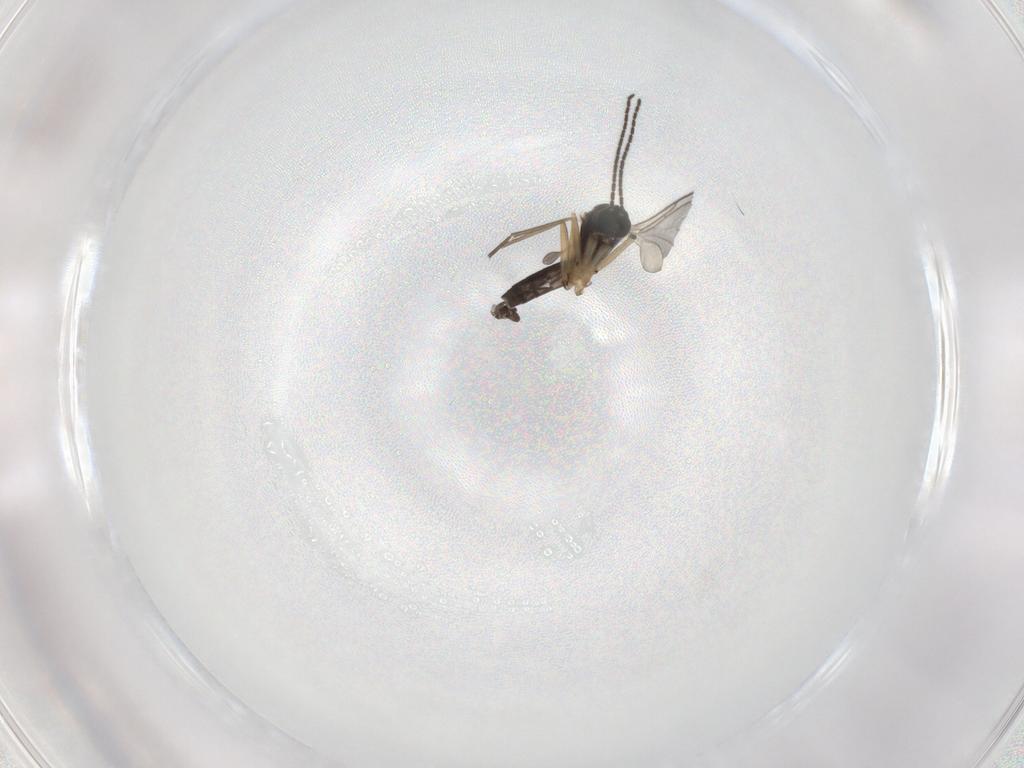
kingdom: Animalia
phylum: Arthropoda
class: Insecta
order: Diptera
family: Sciaridae
